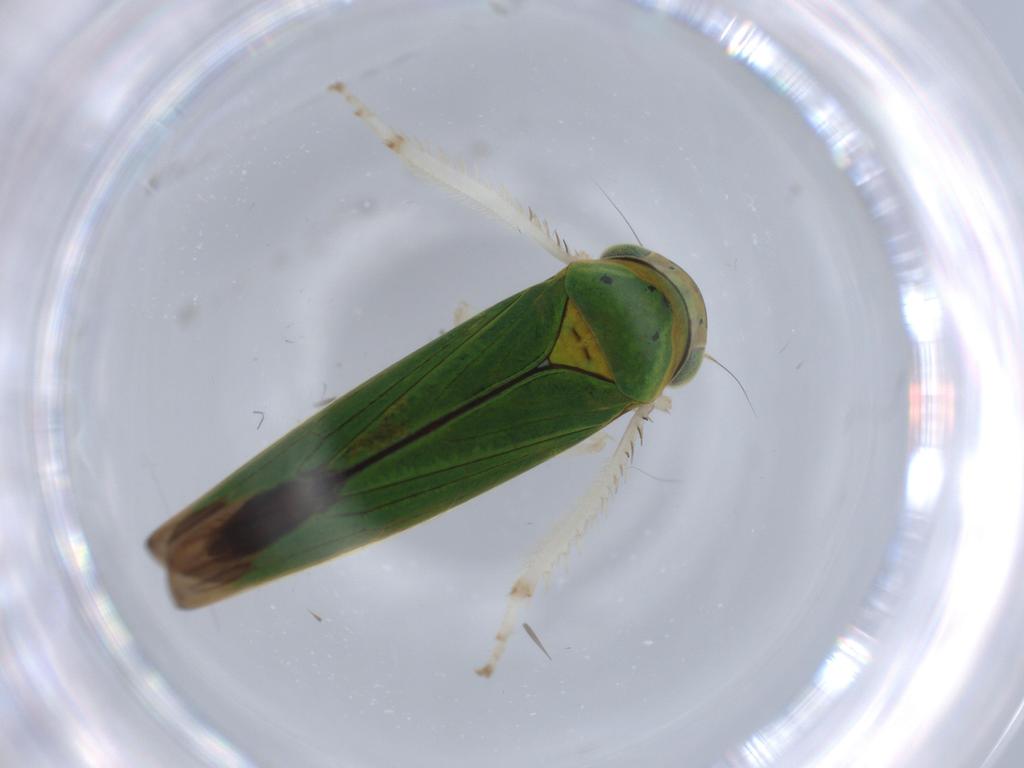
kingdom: Animalia
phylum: Arthropoda
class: Insecta
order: Hemiptera
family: Cicadellidae
